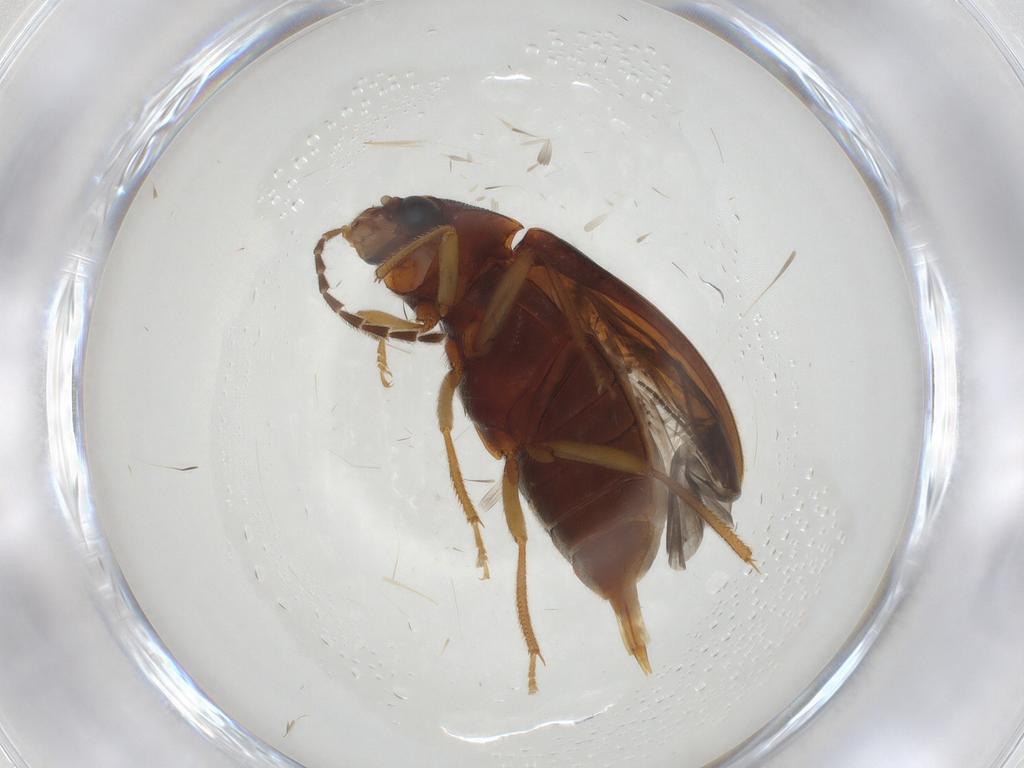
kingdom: Animalia
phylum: Arthropoda
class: Insecta
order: Coleoptera
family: Ptilodactylidae
